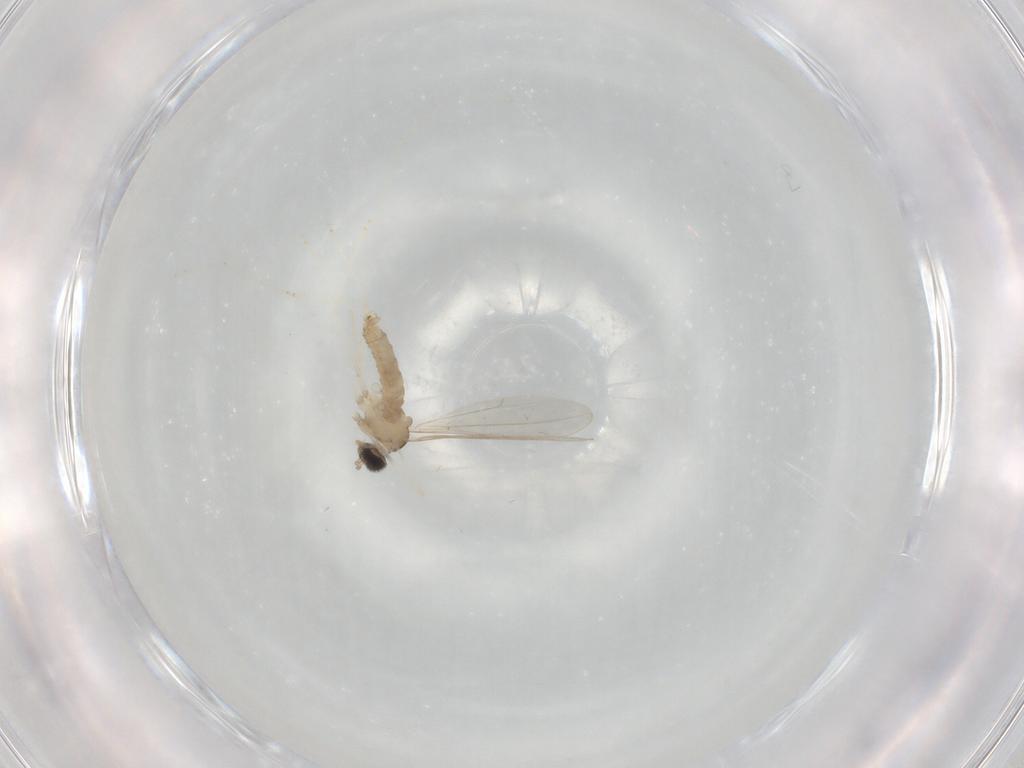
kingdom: Animalia
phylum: Arthropoda
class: Insecta
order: Diptera
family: Cecidomyiidae
